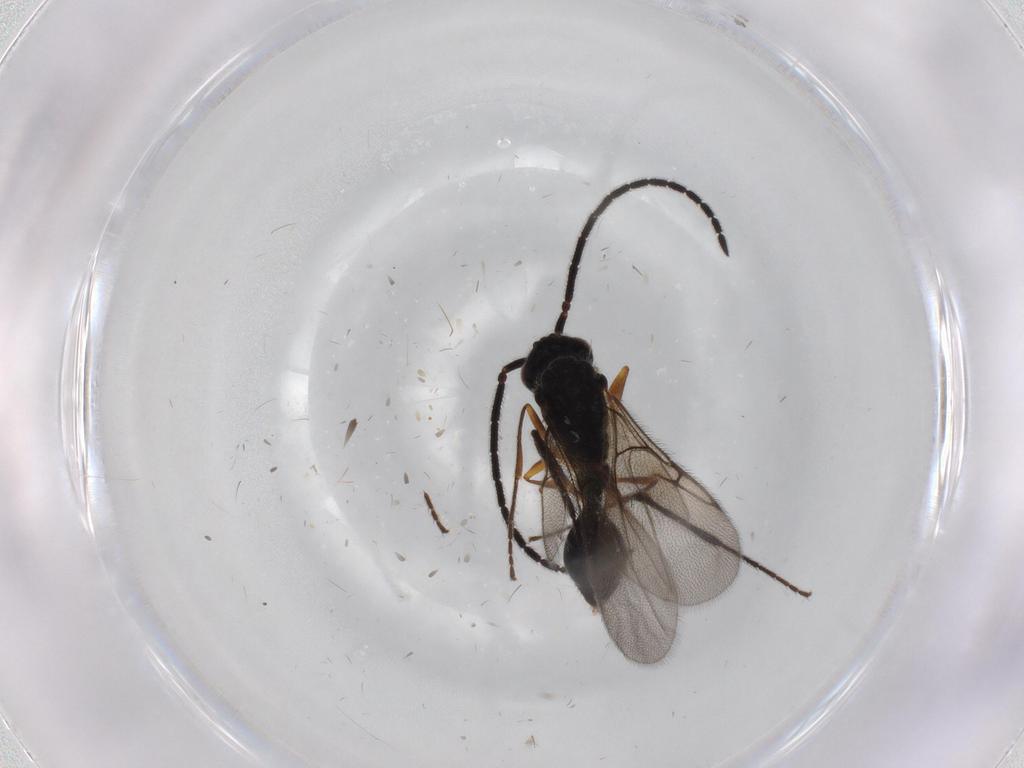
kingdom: Animalia
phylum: Arthropoda
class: Insecta
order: Hymenoptera
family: Diapriidae
